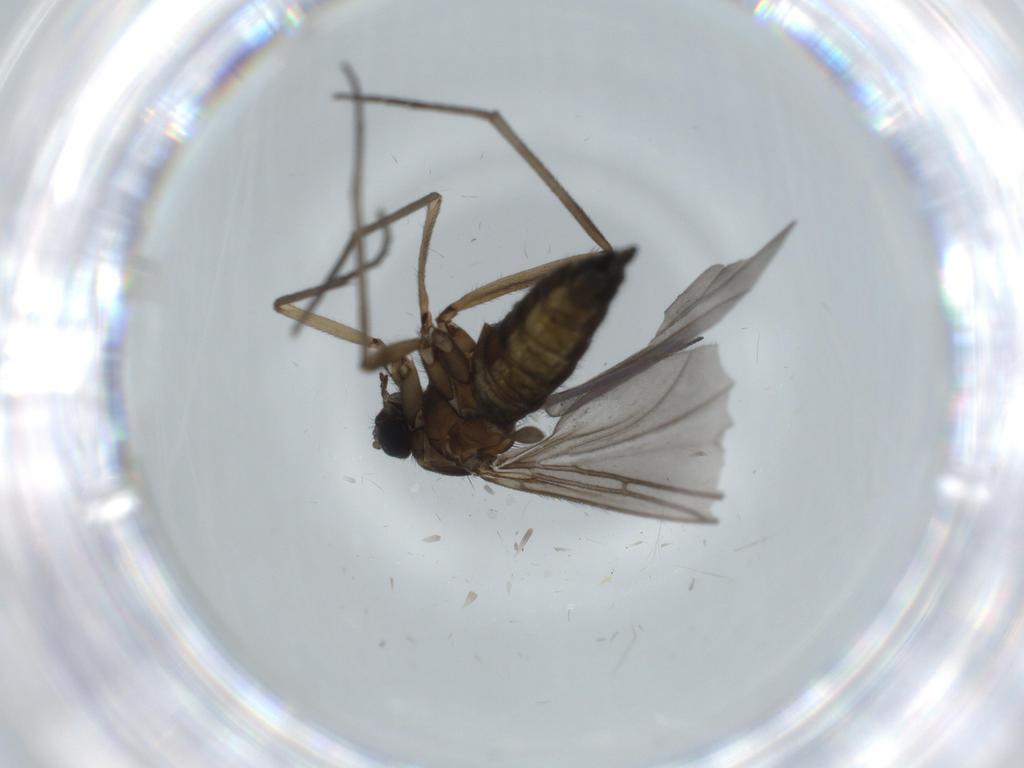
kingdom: Animalia
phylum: Arthropoda
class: Insecta
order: Diptera
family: Sciaridae
